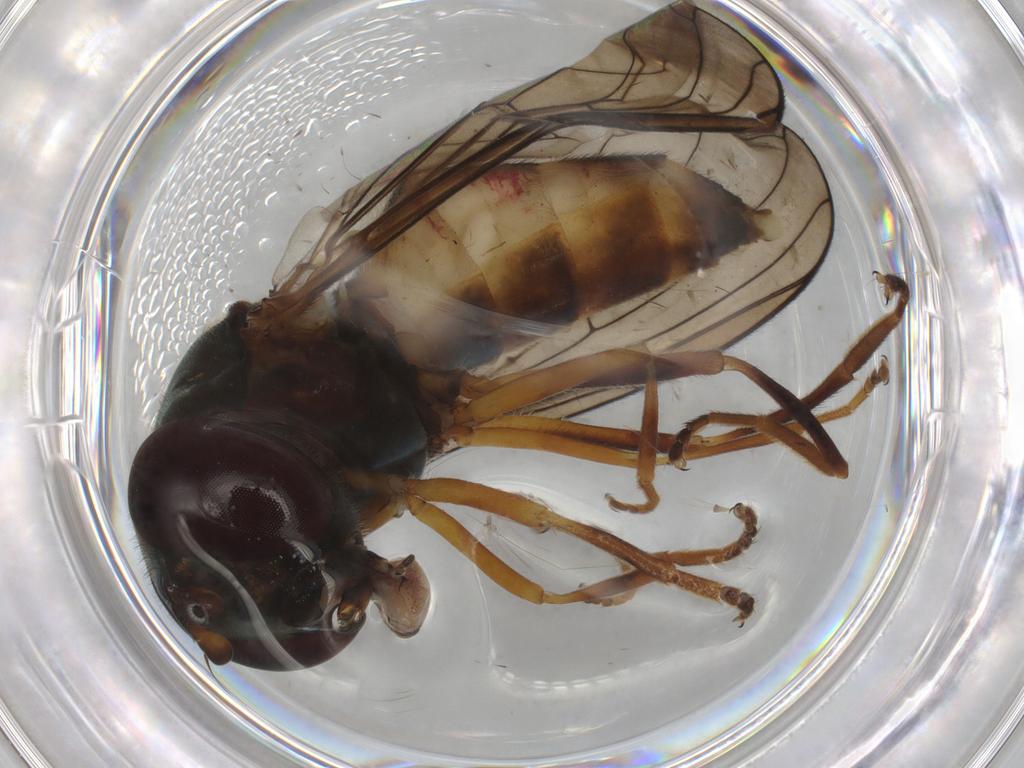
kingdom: Animalia
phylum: Arthropoda
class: Insecta
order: Diptera
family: Syrphidae
